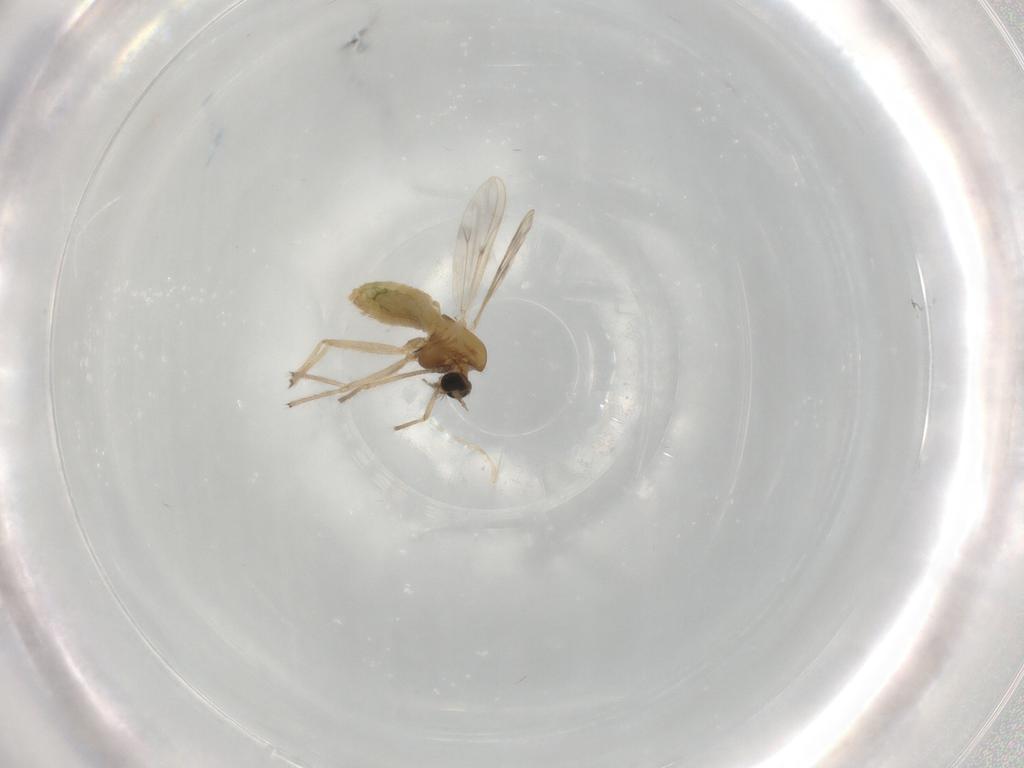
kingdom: Animalia
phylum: Arthropoda
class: Insecta
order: Diptera
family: Chironomidae
